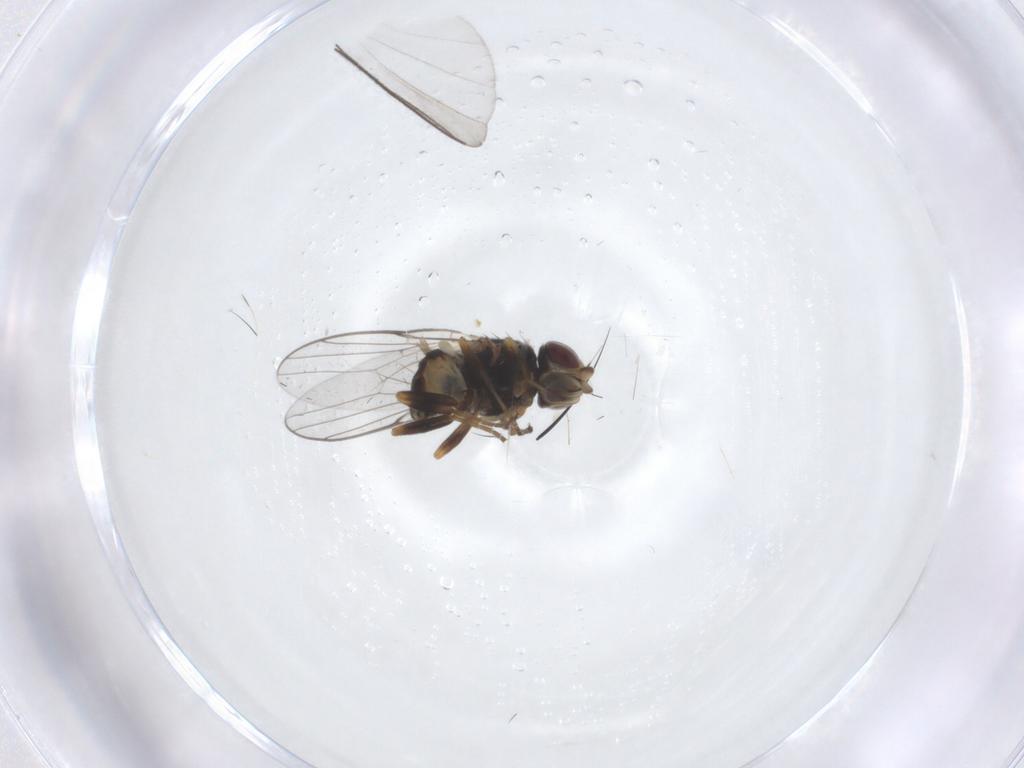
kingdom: Animalia
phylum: Arthropoda
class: Insecta
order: Diptera
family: Chloropidae
